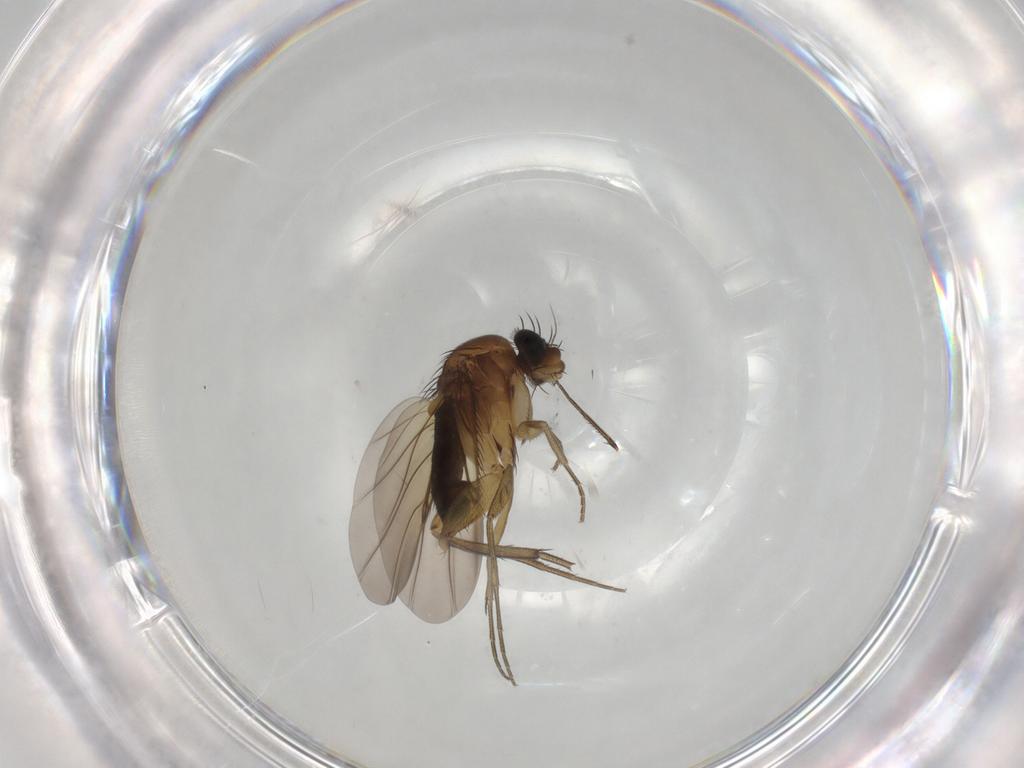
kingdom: Animalia
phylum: Arthropoda
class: Insecta
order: Diptera
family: Phoridae
